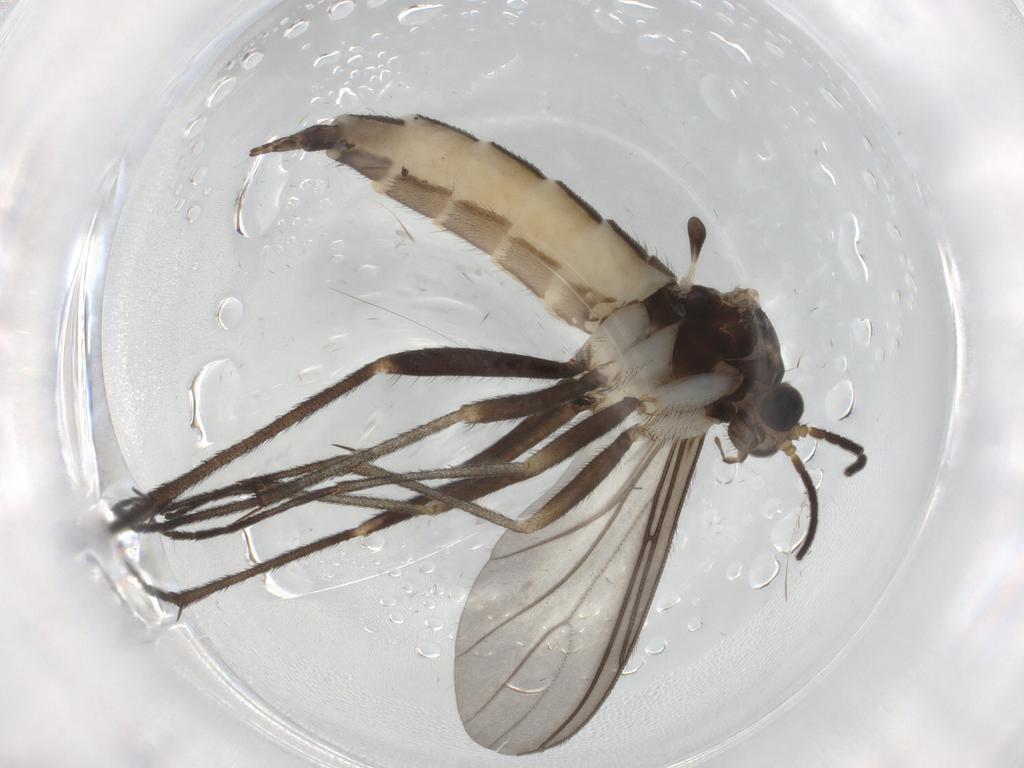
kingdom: Animalia
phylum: Arthropoda
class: Insecta
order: Diptera
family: Sciaridae
